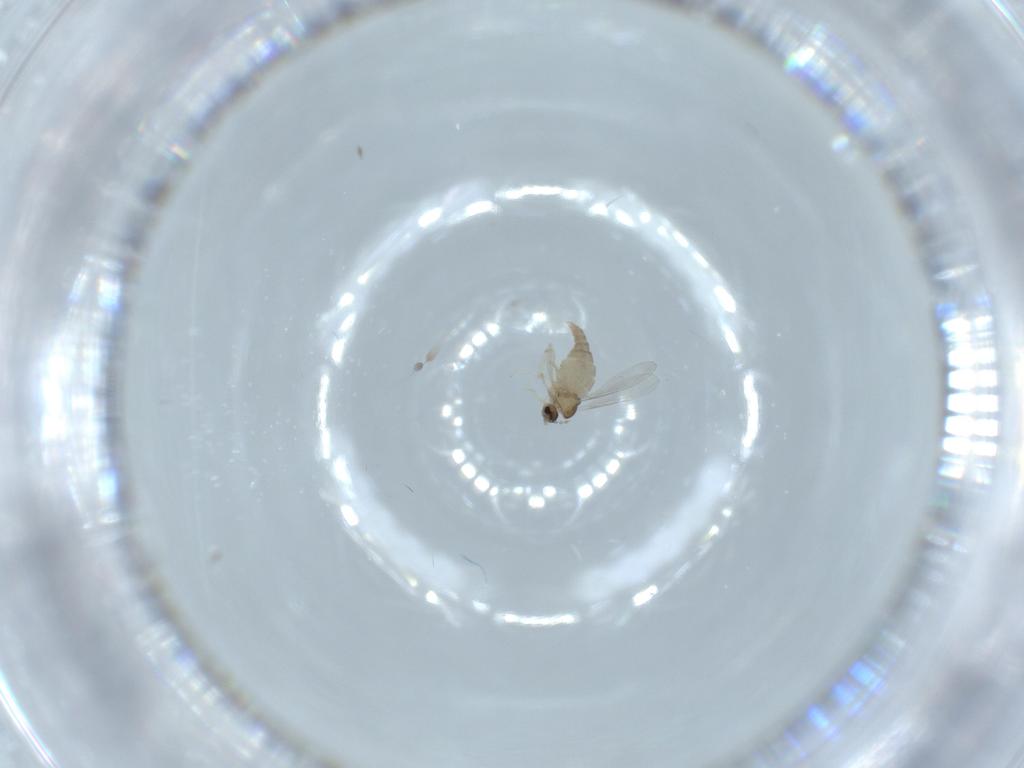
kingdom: Animalia
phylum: Arthropoda
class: Insecta
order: Diptera
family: Cecidomyiidae
